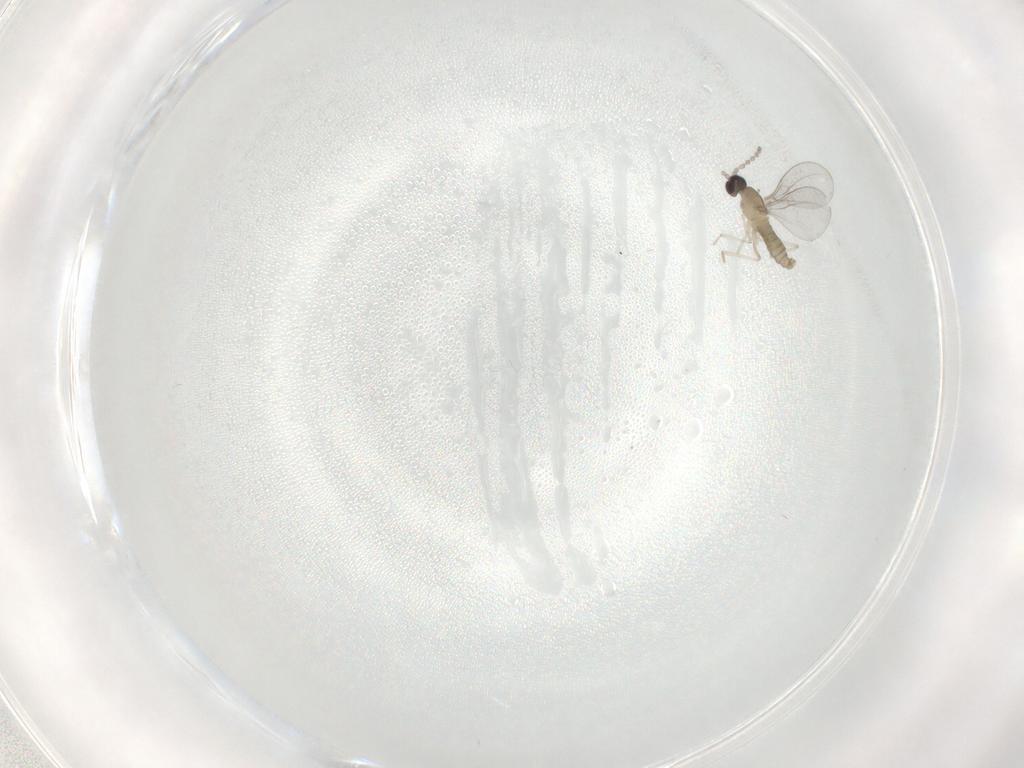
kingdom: Animalia
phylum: Arthropoda
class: Insecta
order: Diptera
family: Cecidomyiidae
